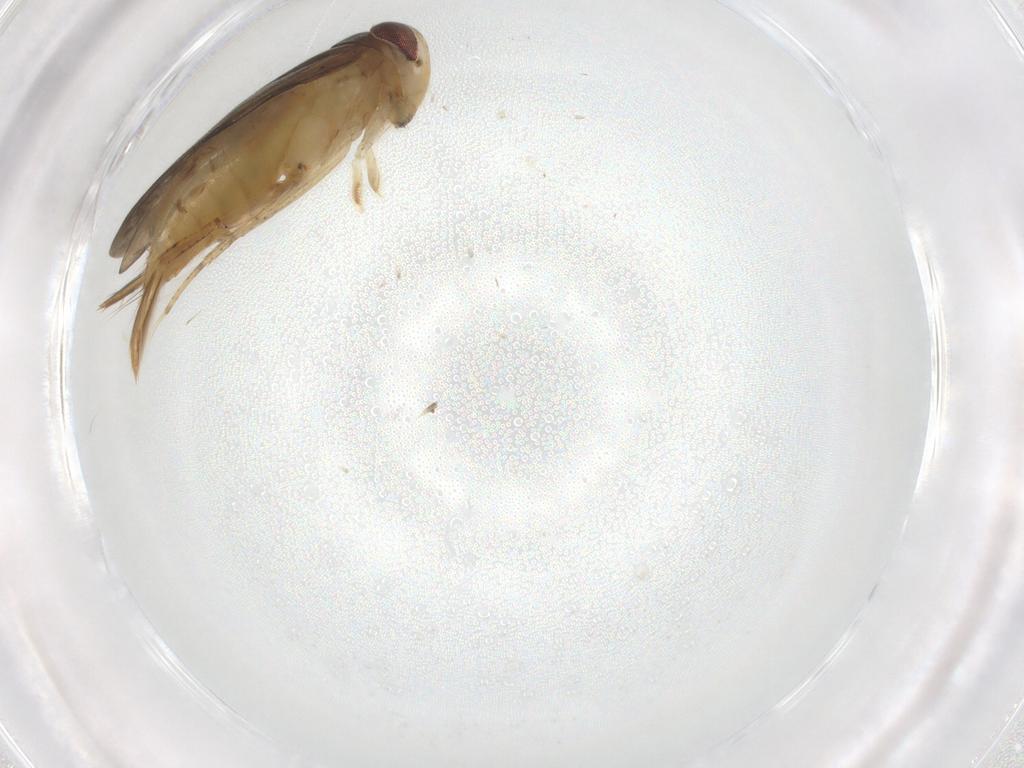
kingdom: Animalia
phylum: Arthropoda
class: Insecta
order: Hemiptera
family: Corixidae
